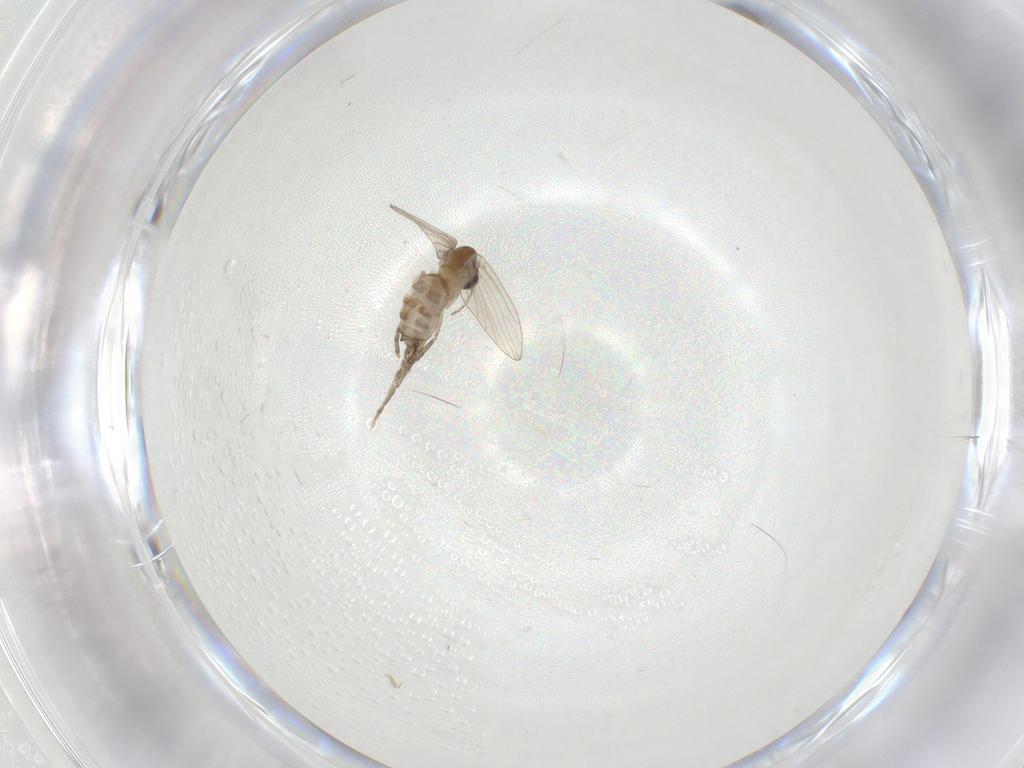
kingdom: Animalia
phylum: Arthropoda
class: Insecta
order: Diptera
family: Cecidomyiidae
